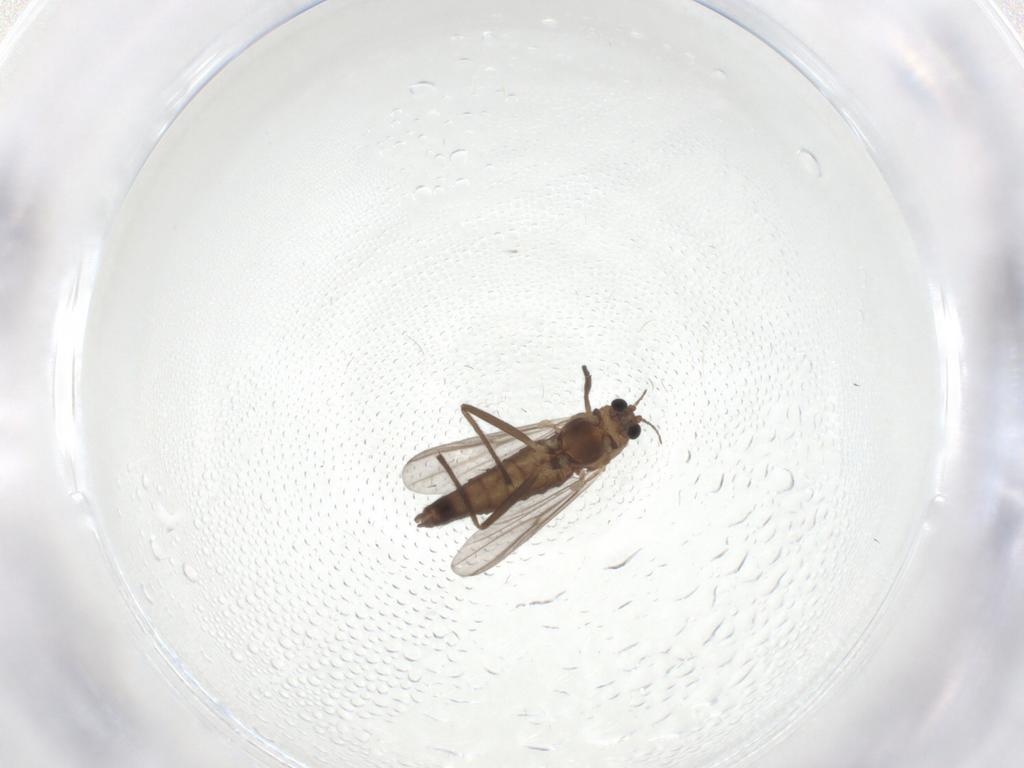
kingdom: Animalia
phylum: Arthropoda
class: Insecta
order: Diptera
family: Chironomidae
